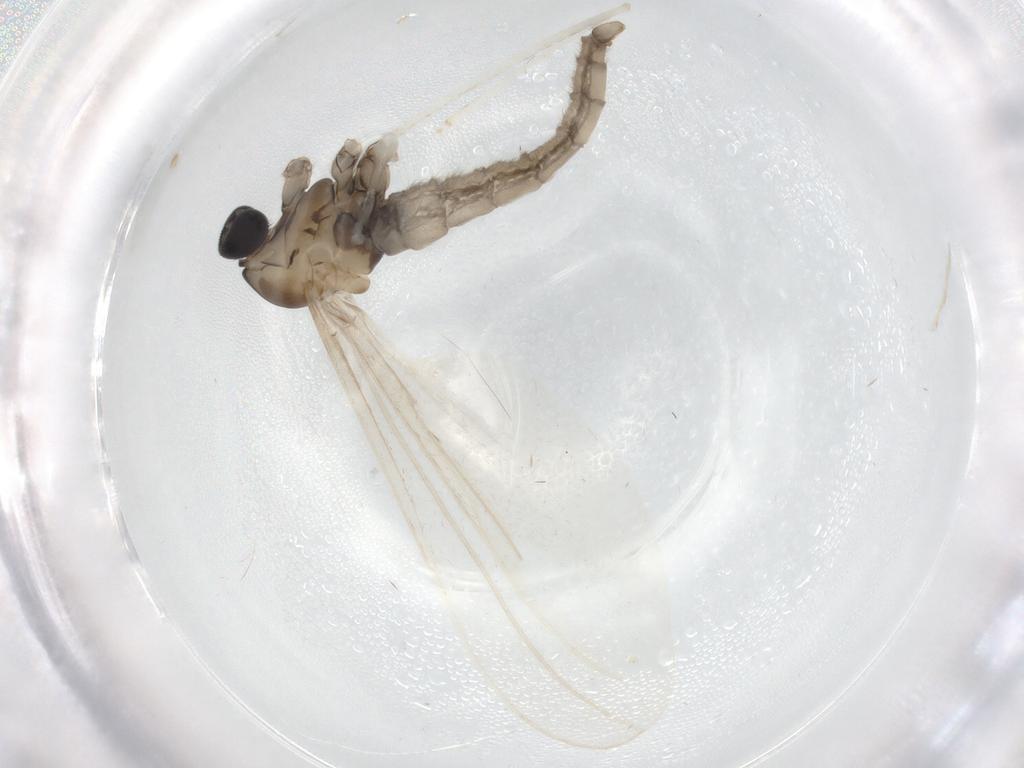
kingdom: Animalia
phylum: Arthropoda
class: Insecta
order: Diptera
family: Cecidomyiidae
